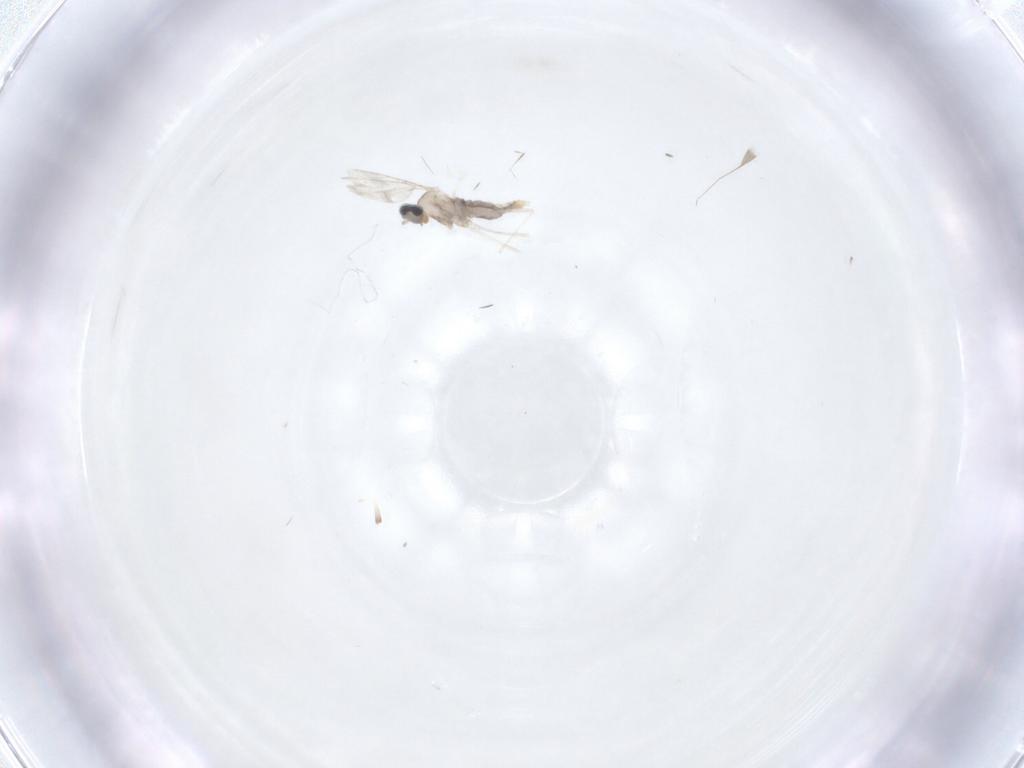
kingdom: Animalia
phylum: Arthropoda
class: Insecta
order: Diptera
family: Cecidomyiidae
